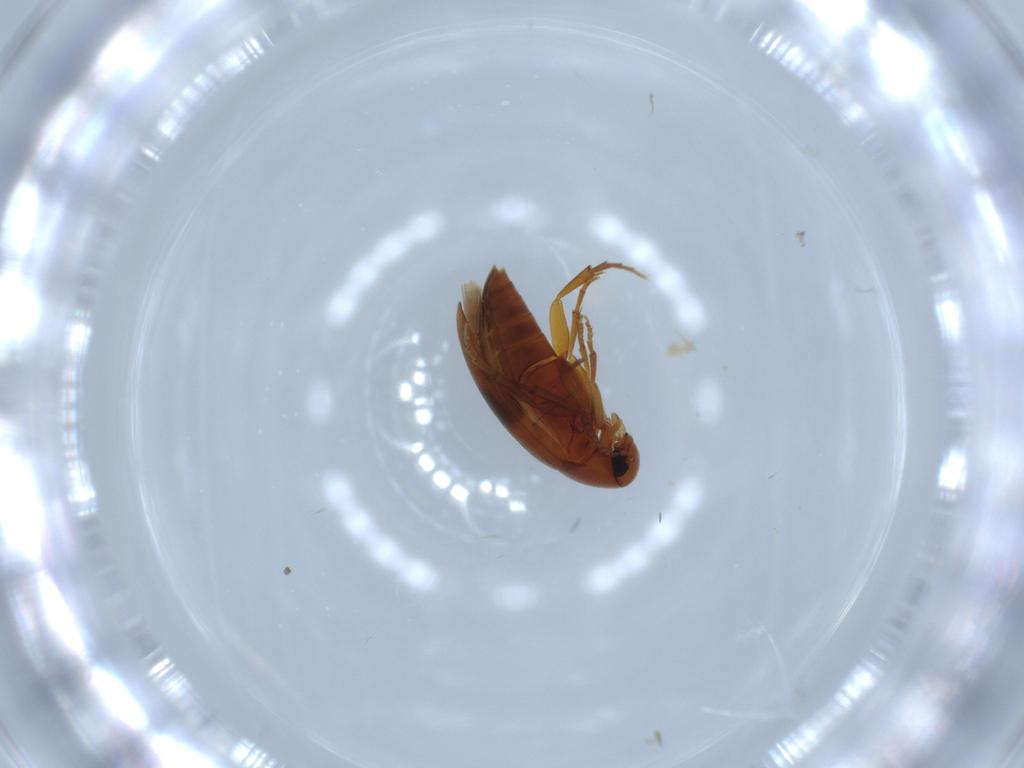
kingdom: Animalia
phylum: Arthropoda
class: Insecta
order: Coleoptera
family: Scraptiidae
